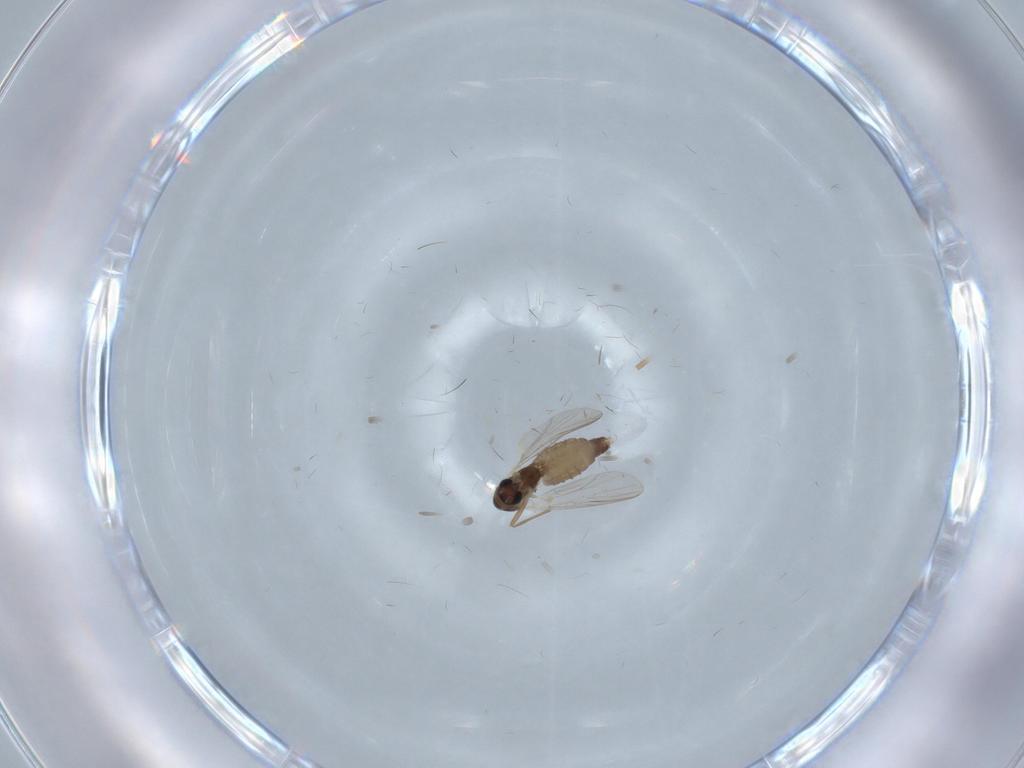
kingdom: Animalia
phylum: Arthropoda
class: Insecta
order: Diptera
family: Chironomidae
